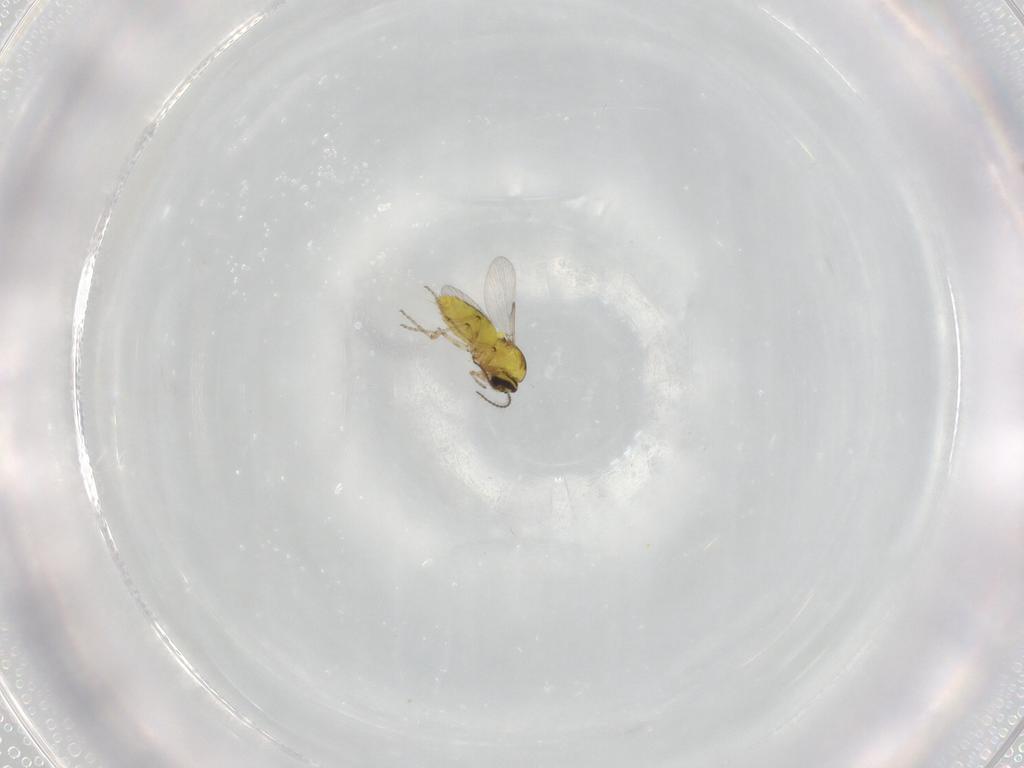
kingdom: Animalia
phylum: Arthropoda
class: Insecta
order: Diptera
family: Ceratopogonidae
